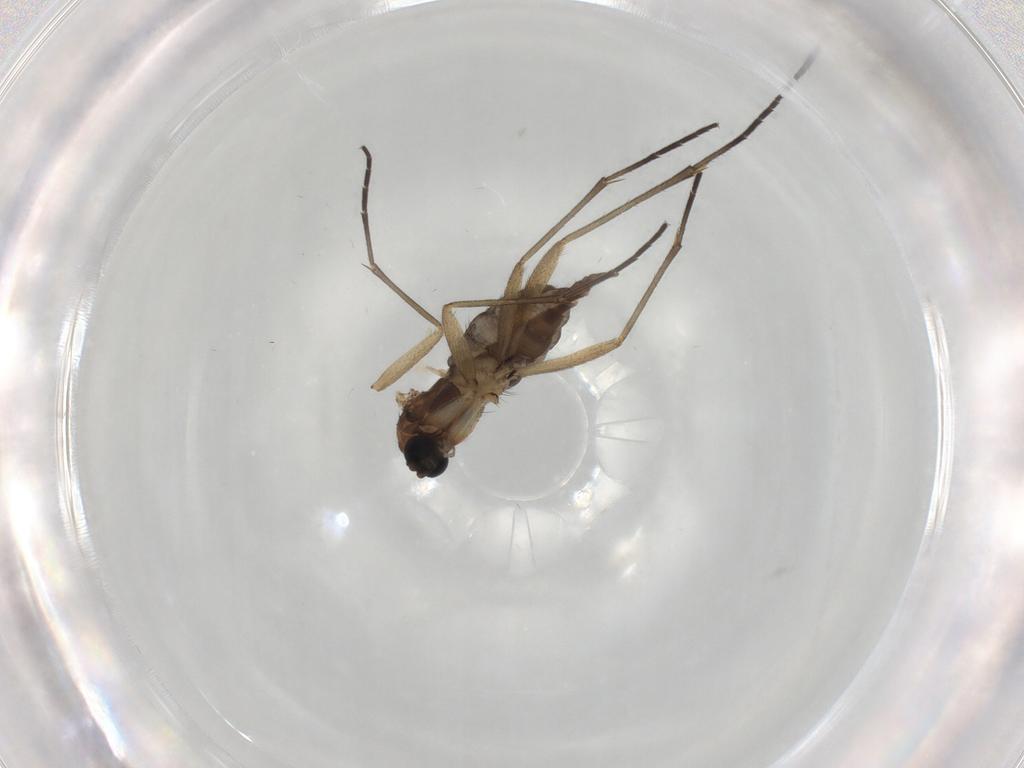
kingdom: Animalia
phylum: Arthropoda
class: Insecta
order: Diptera
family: Sciaridae
